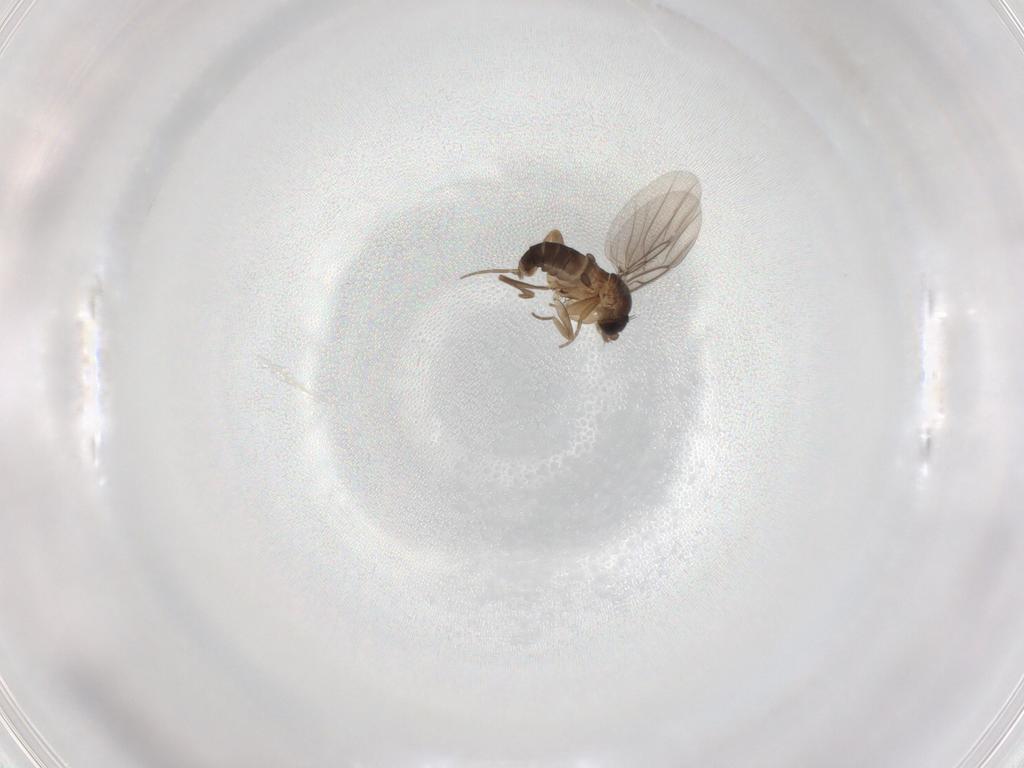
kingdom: Animalia
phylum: Arthropoda
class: Insecta
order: Diptera
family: Phoridae
